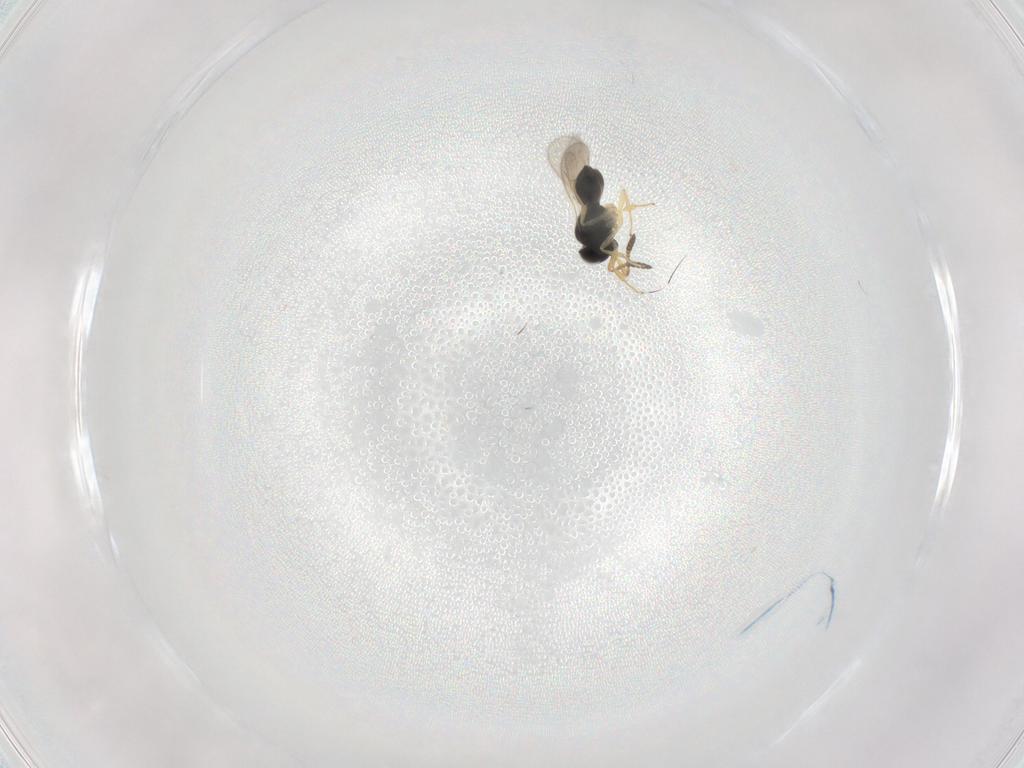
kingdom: Animalia
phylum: Arthropoda
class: Insecta
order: Hymenoptera
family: Scelionidae
